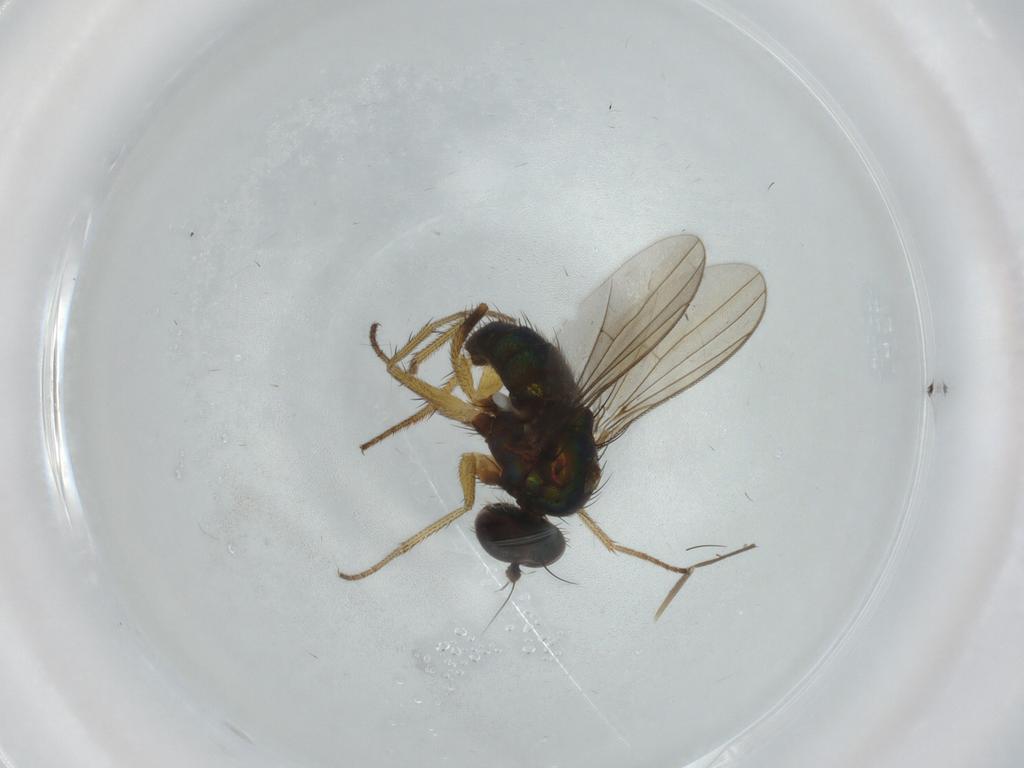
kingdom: Animalia
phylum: Arthropoda
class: Insecta
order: Diptera
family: Dolichopodidae
